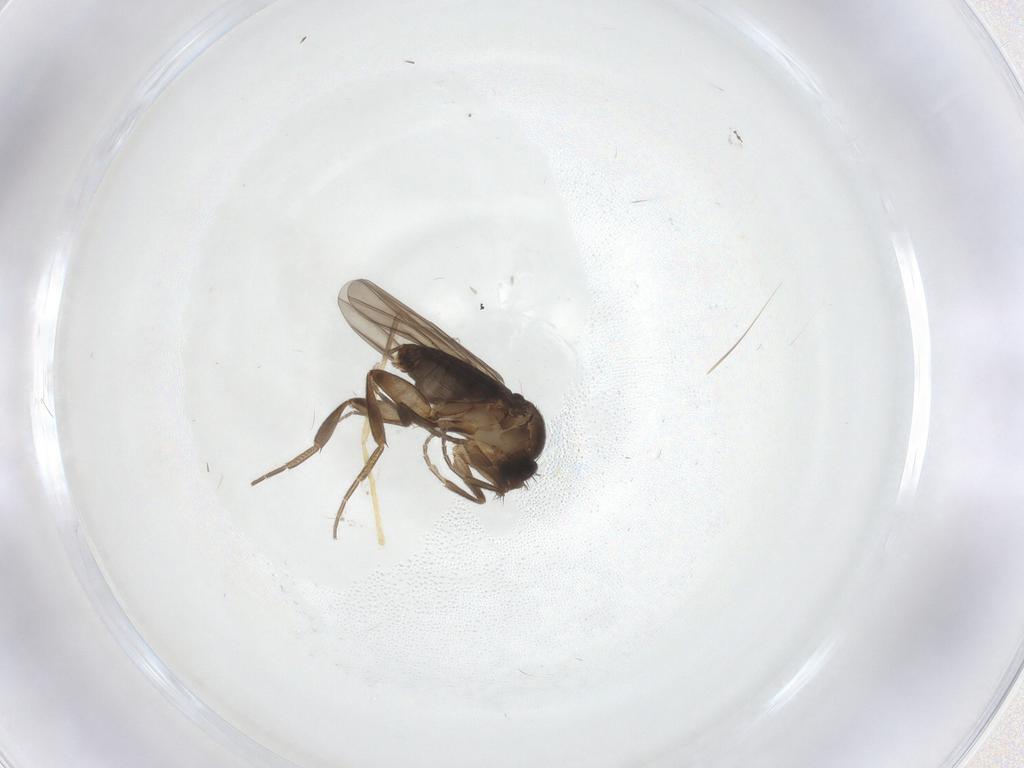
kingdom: Animalia
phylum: Arthropoda
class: Insecta
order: Diptera
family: Phoridae
